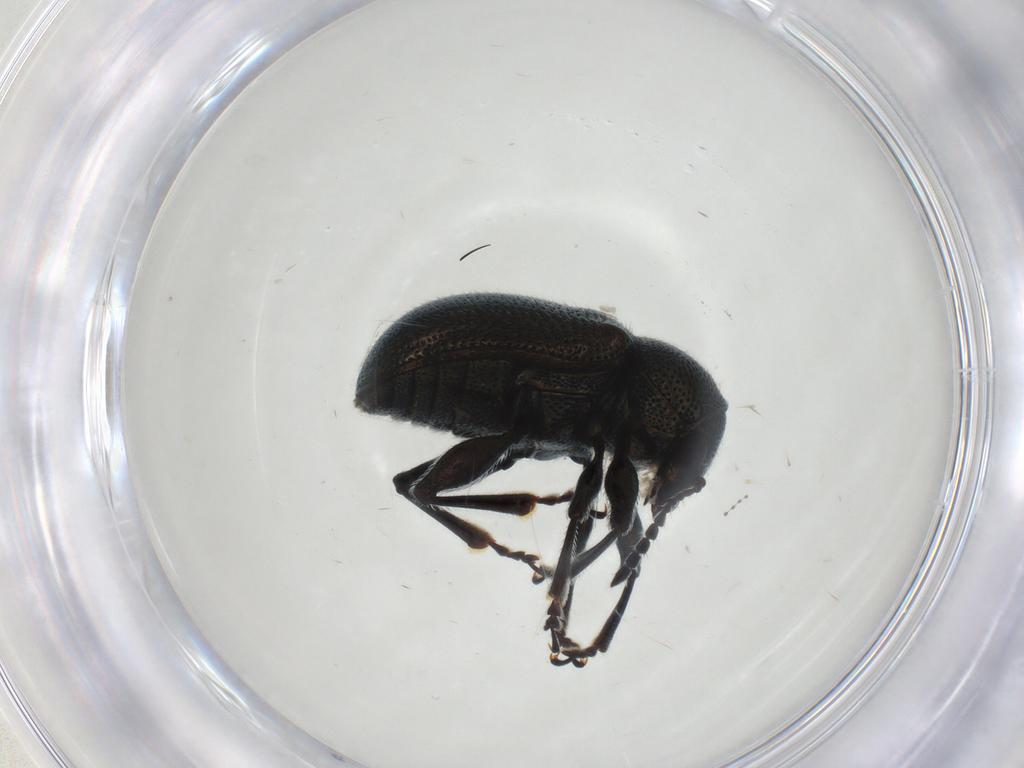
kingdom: Animalia
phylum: Arthropoda
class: Insecta
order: Coleoptera
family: Chrysomelidae
